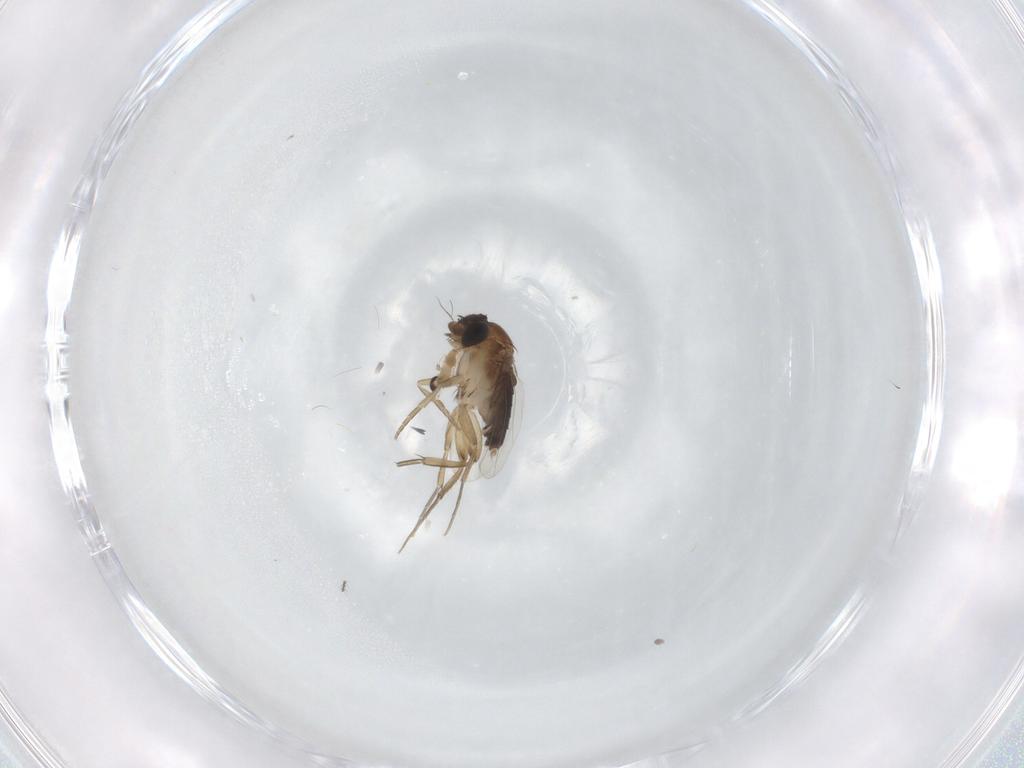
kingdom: Animalia
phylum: Arthropoda
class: Insecta
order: Diptera
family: Phoridae
